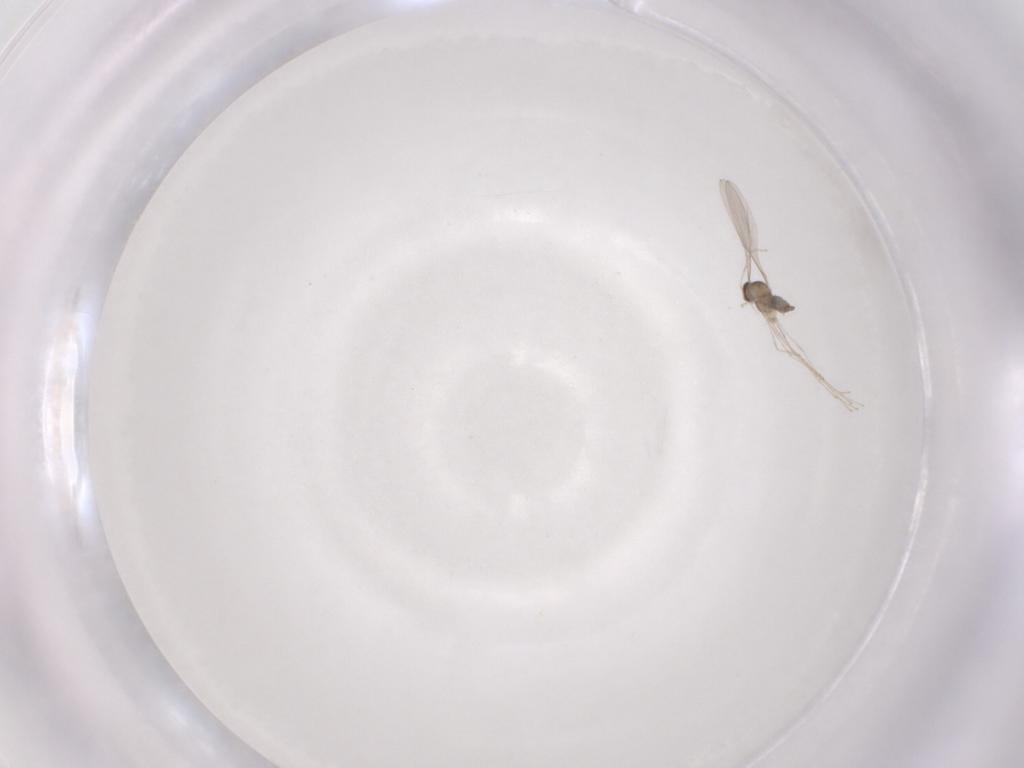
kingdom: Animalia
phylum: Arthropoda
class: Insecta
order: Diptera
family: Cecidomyiidae
